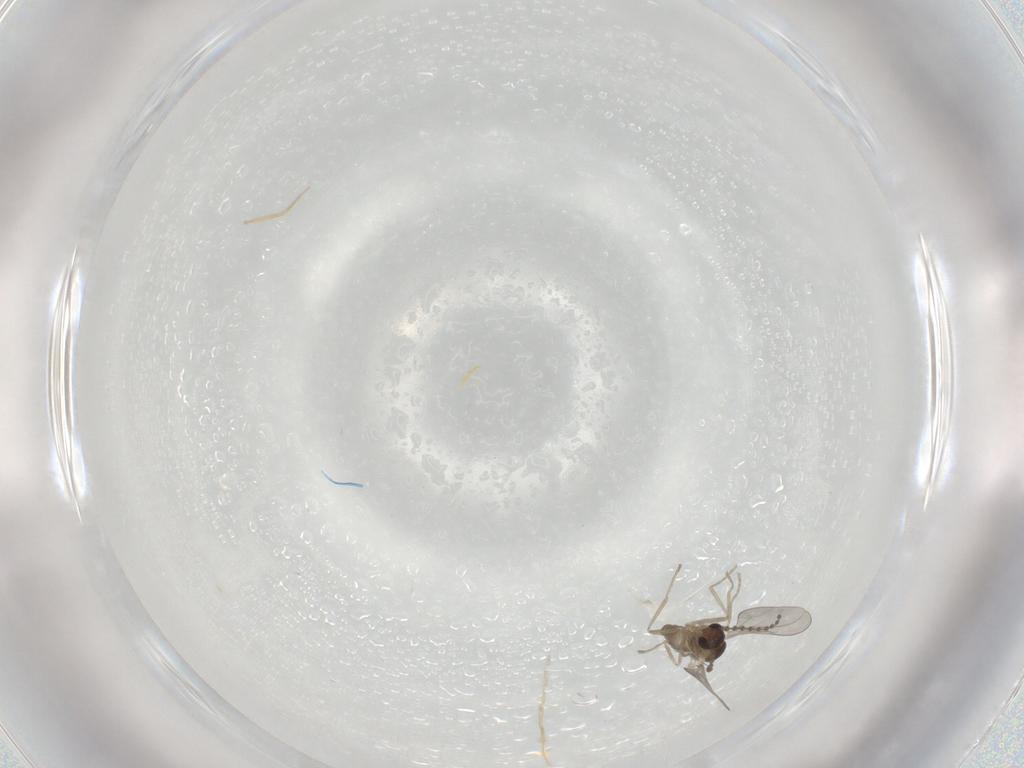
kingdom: Animalia
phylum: Arthropoda
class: Insecta
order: Diptera
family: Cecidomyiidae
